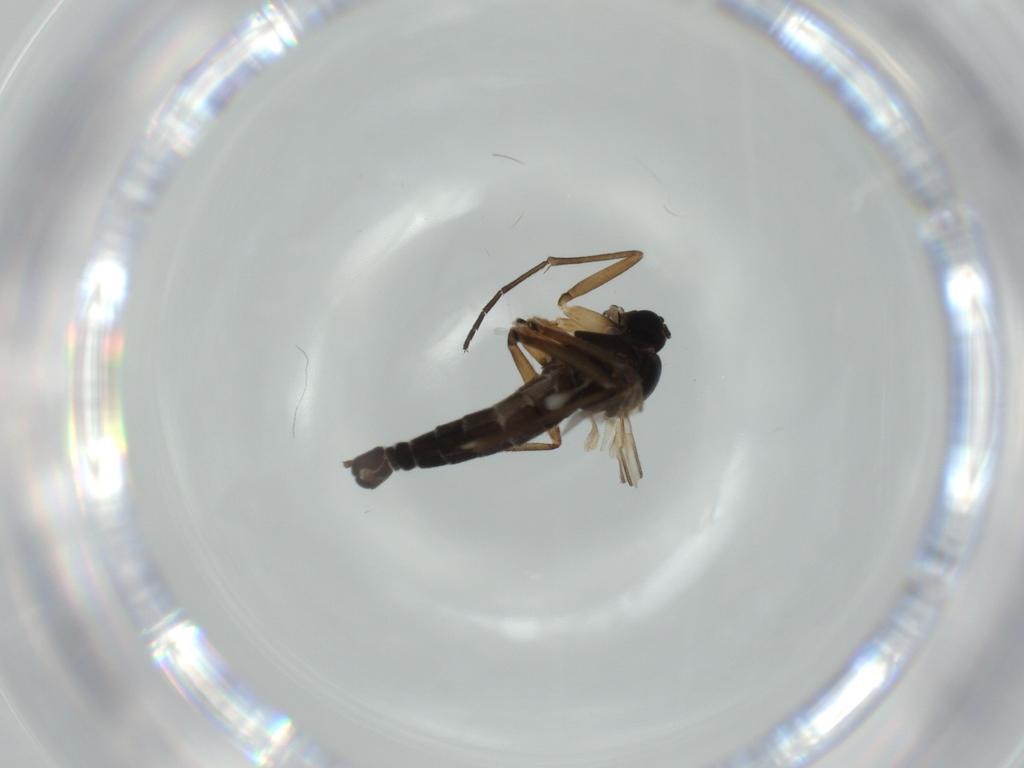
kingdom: Animalia
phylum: Arthropoda
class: Insecta
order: Diptera
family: Sciaridae
